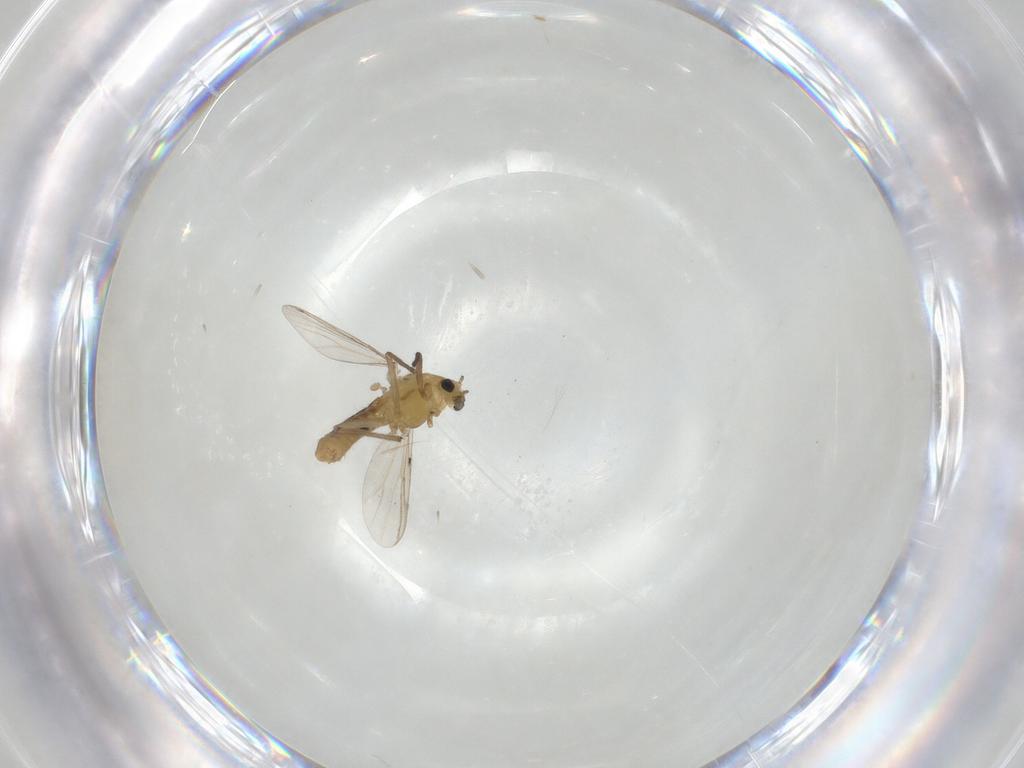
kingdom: Animalia
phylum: Arthropoda
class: Insecta
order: Diptera
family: Chironomidae
